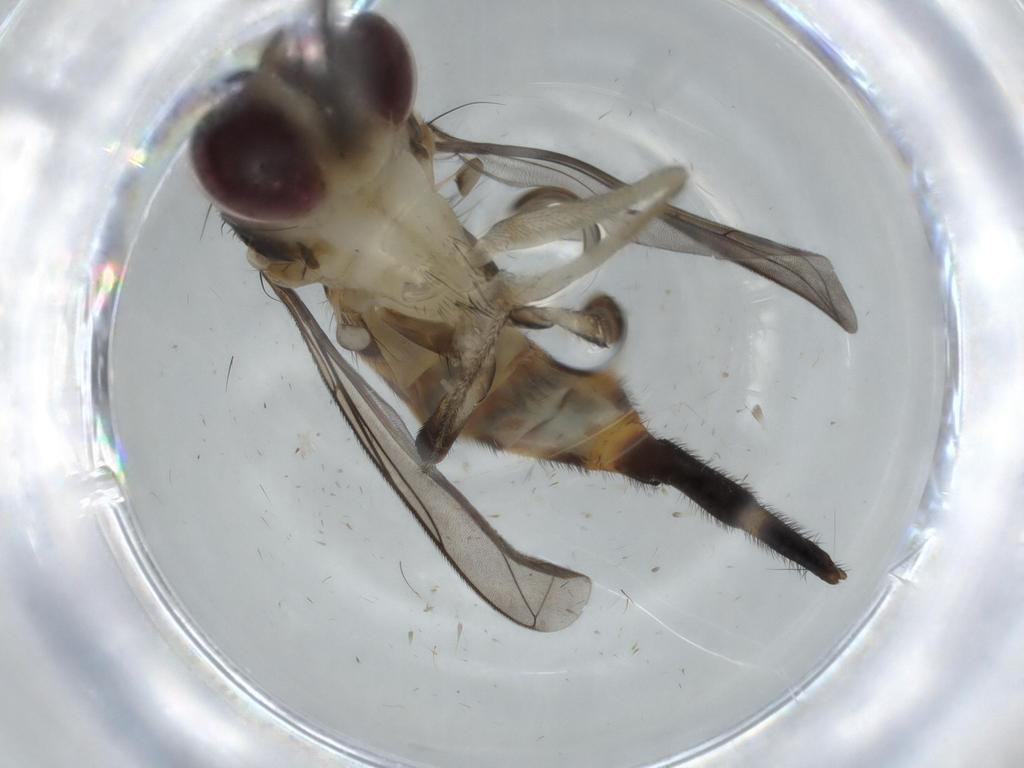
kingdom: Animalia
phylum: Arthropoda
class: Insecta
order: Diptera
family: Phoridae
